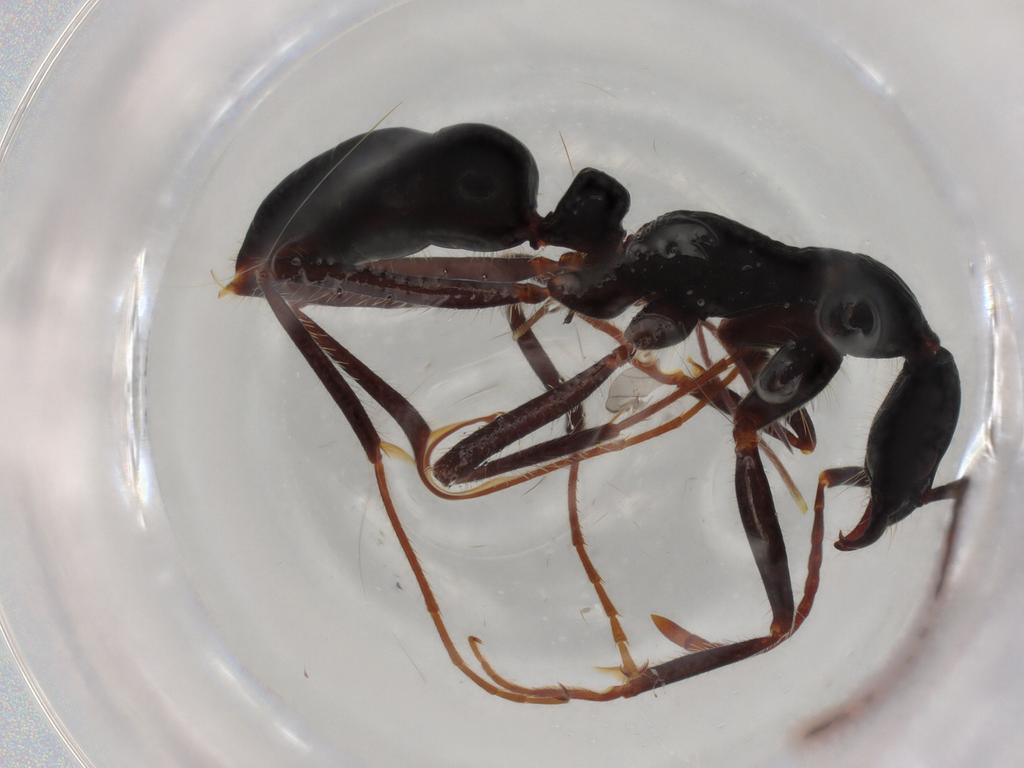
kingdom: Animalia
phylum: Arthropoda
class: Insecta
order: Hymenoptera
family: Formicidae
